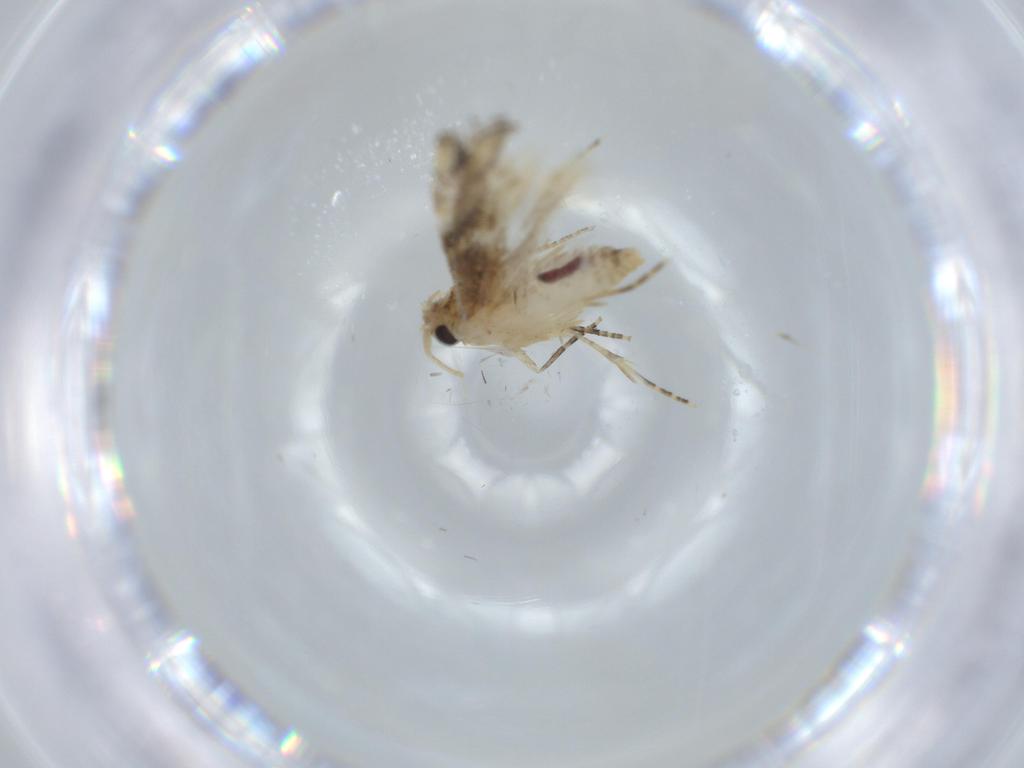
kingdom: Animalia
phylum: Arthropoda
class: Insecta
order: Lepidoptera
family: Bucculatricidae
